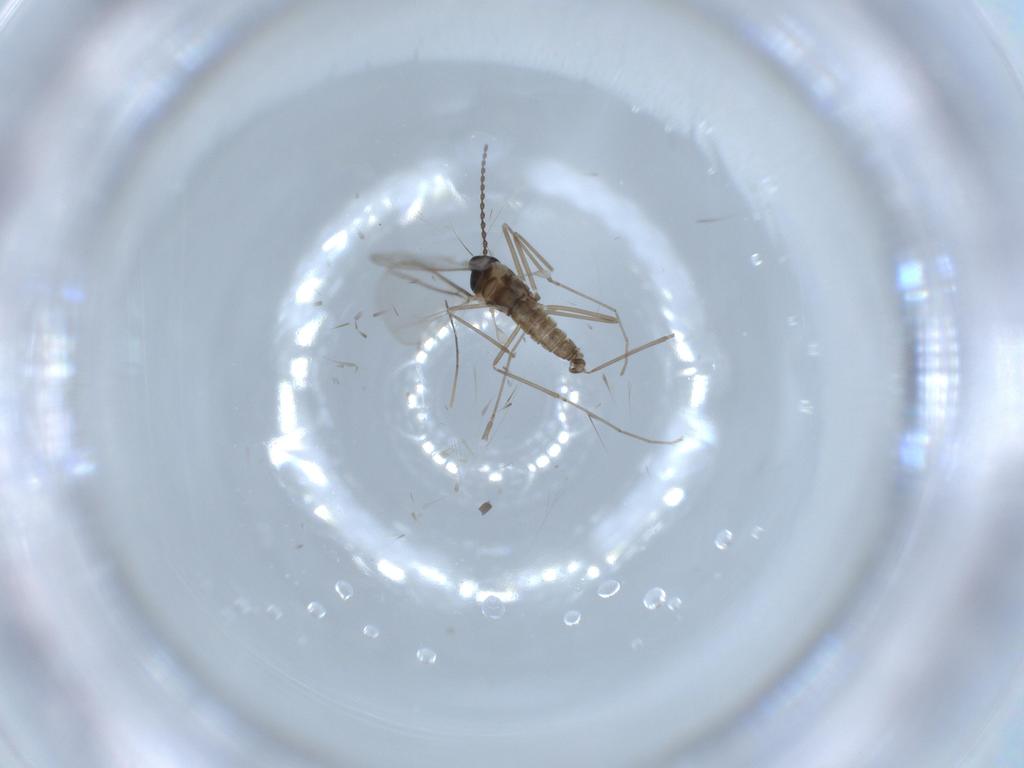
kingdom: Animalia
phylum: Arthropoda
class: Insecta
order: Diptera
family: Cecidomyiidae
